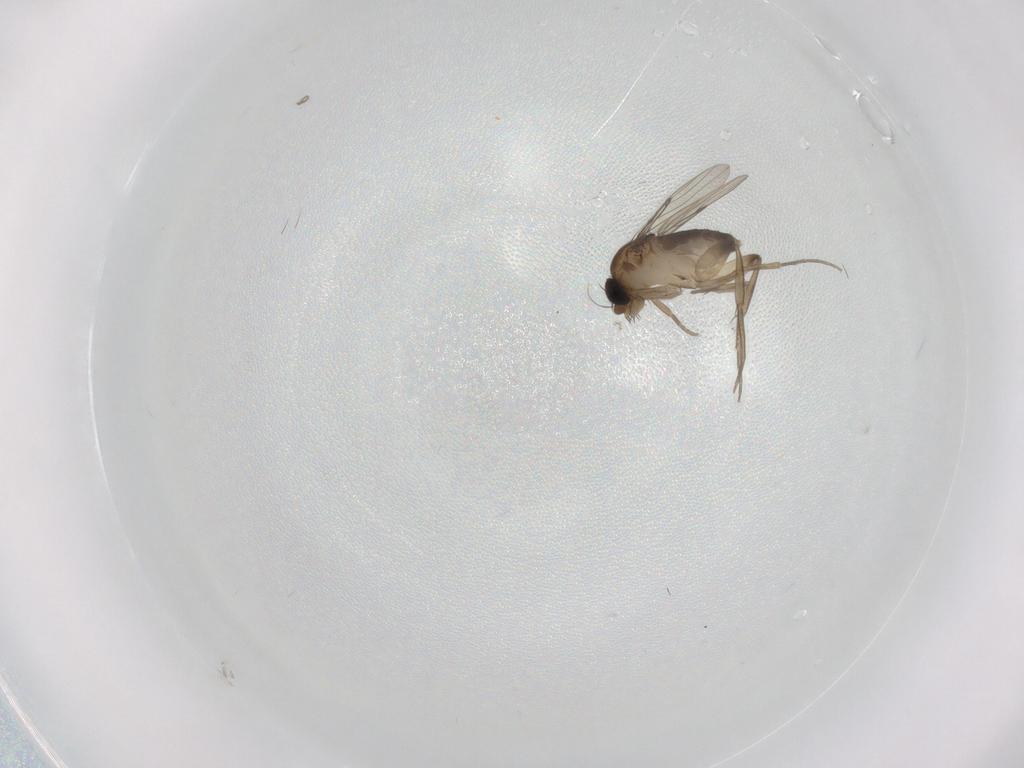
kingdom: Animalia
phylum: Arthropoda
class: Insecta
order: Diptera
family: Phoridae
